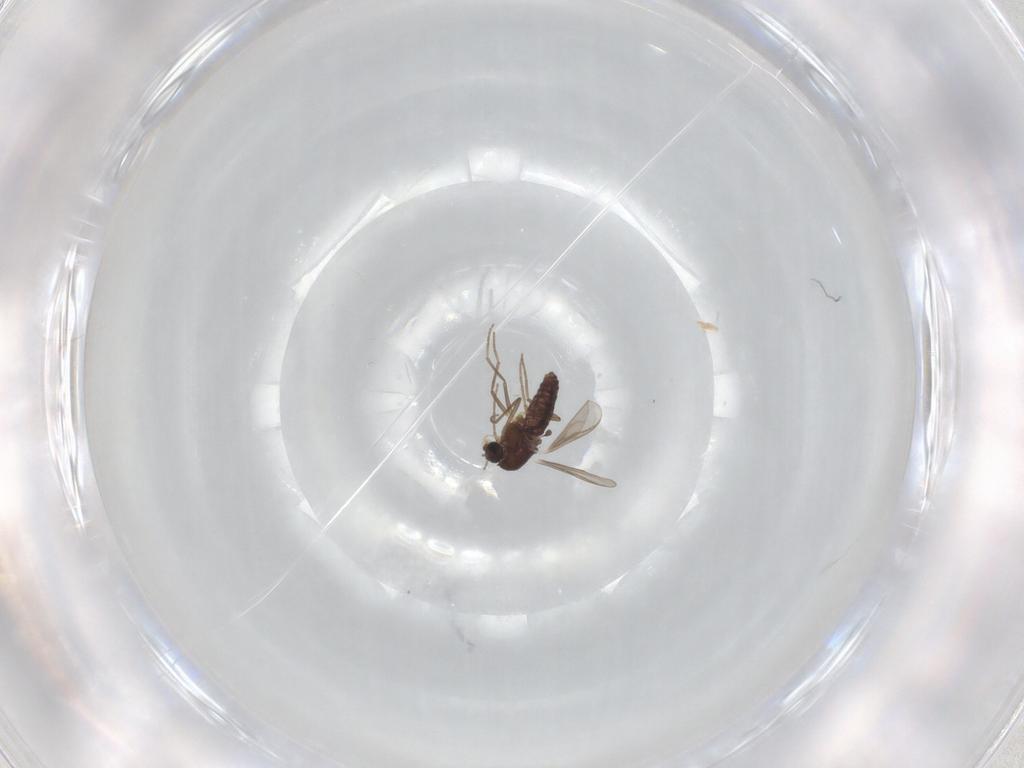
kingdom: Animalia
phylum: Arthropoda
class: Insecta
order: Diptera
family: Chironomidae
